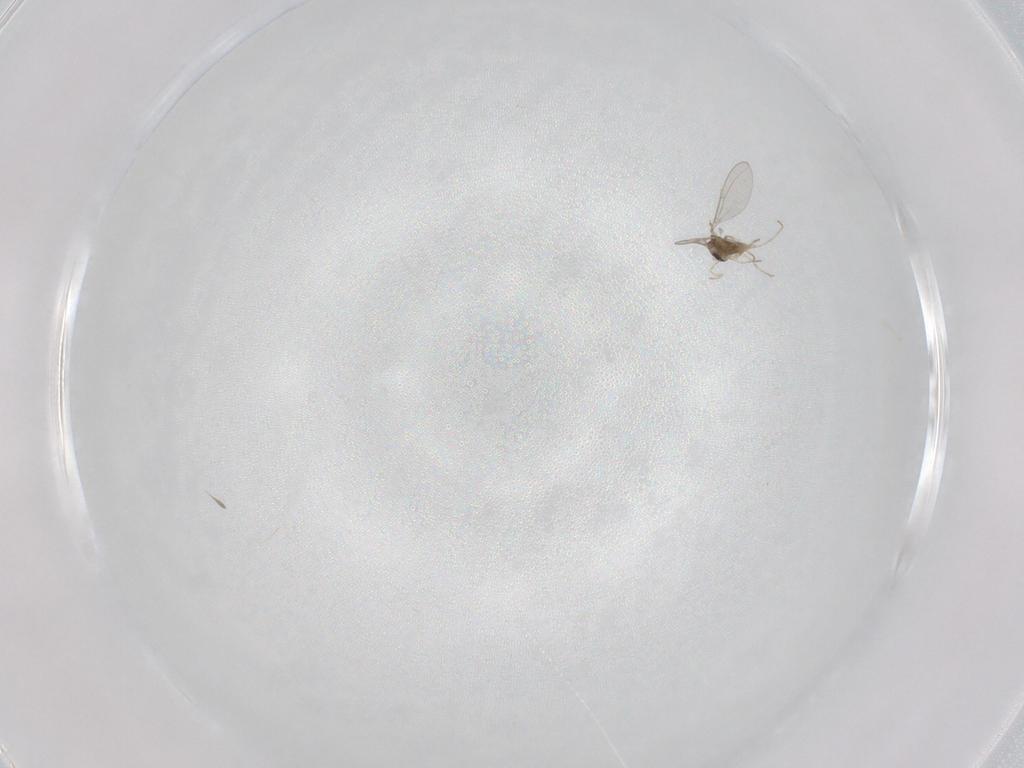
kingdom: Animalia
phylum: Arthropoda
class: Insecta
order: Diptera
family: Cecidomyiidae
